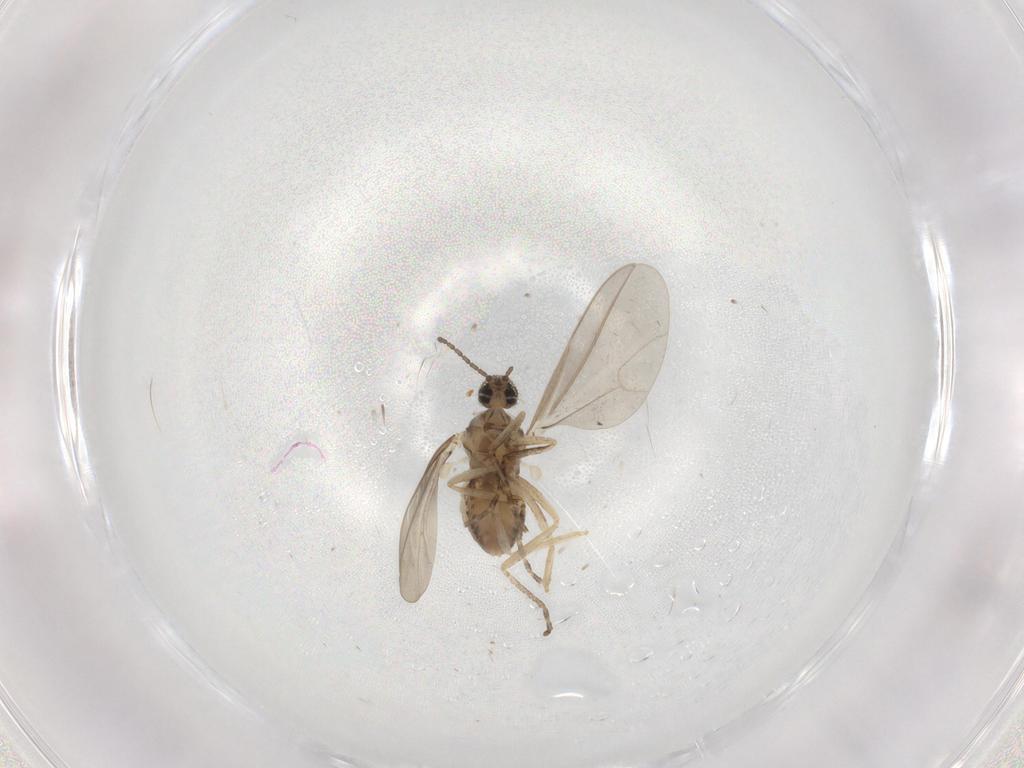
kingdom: Animalia
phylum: Arthropoda
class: Insecta
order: Diptera
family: Cecidomyiidae
